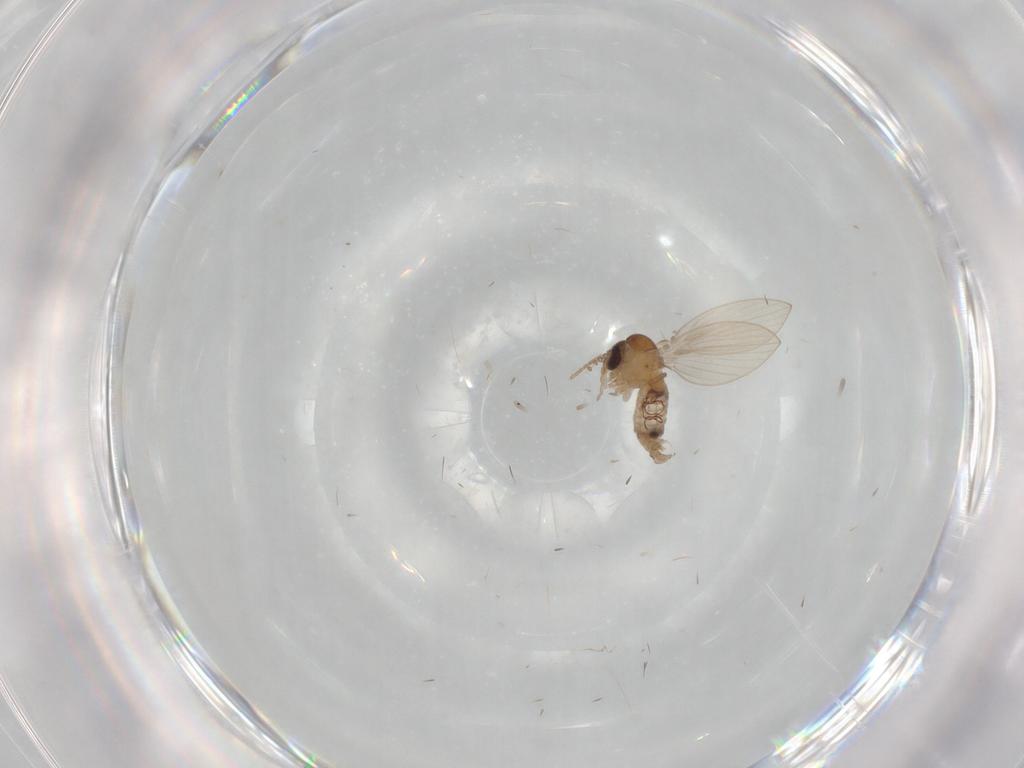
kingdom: Animalia
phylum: Arthropoda
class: Insecta
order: Diptera
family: Psychodidae
